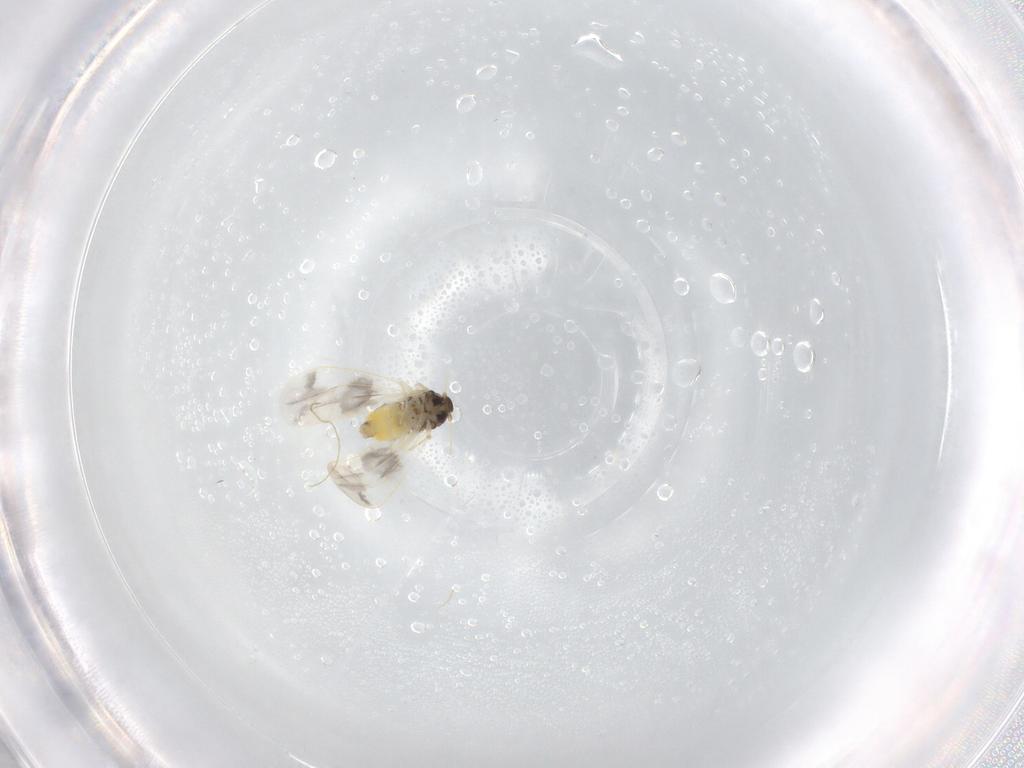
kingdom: Animalia
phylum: Arthropoda
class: Insecta
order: Hemiptera
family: Aleyrodidae
